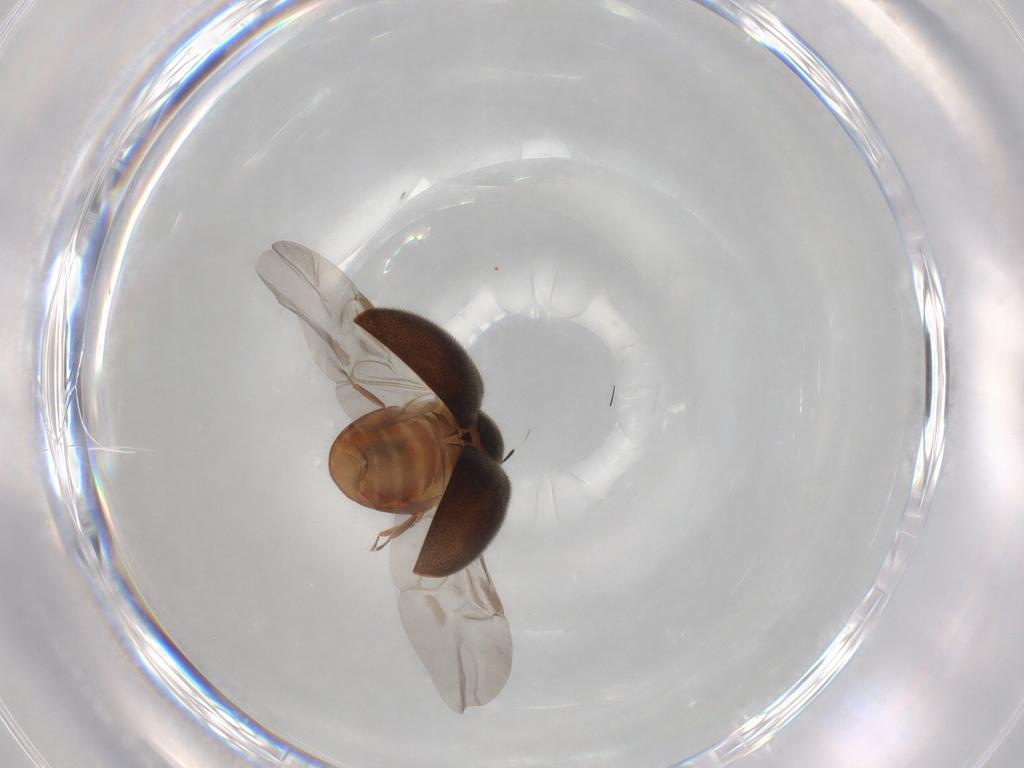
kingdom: Animalia
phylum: Arthropoda
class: Insecta
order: Coleoptera
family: Limnichidae
